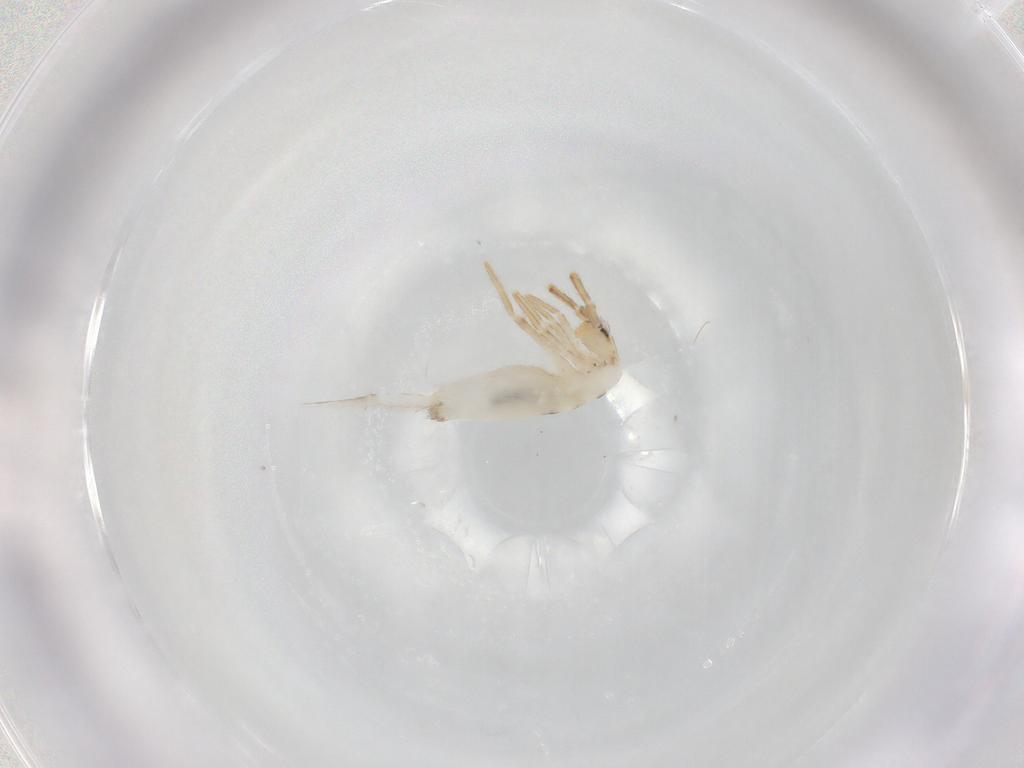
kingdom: Animalia
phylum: Arthropoda
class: Collembola
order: Entomobryomorpha
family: Entomobryidae
